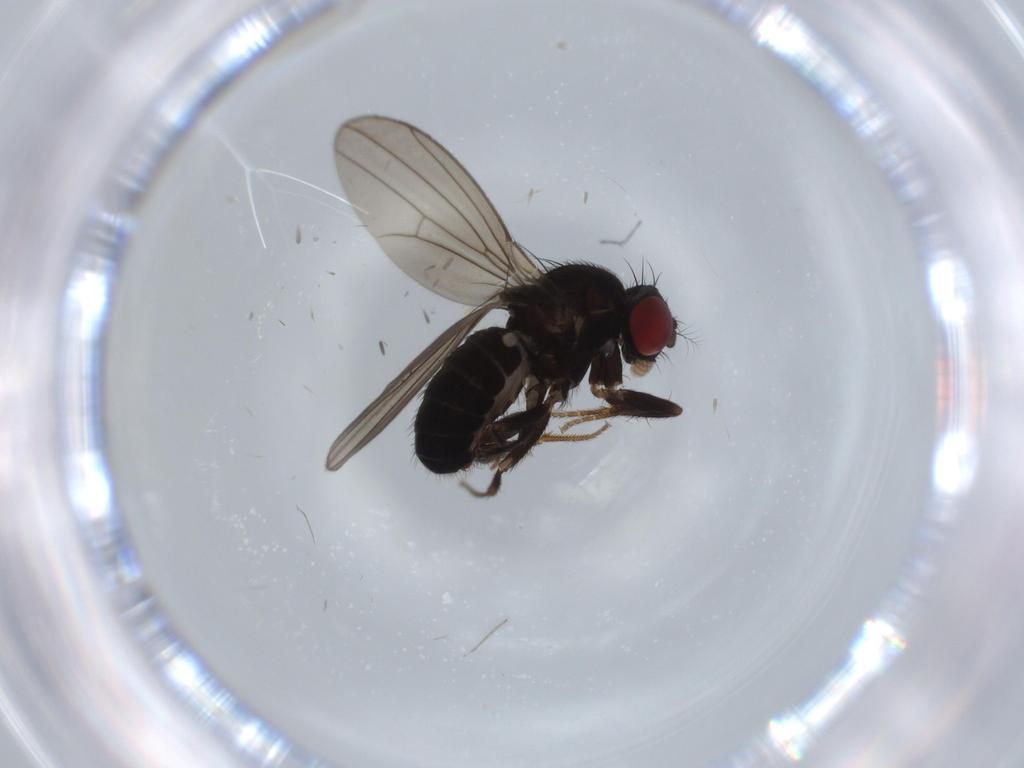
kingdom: Animalia
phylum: Arthropoda
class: Insecta
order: Diptera
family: Drosophilidae
